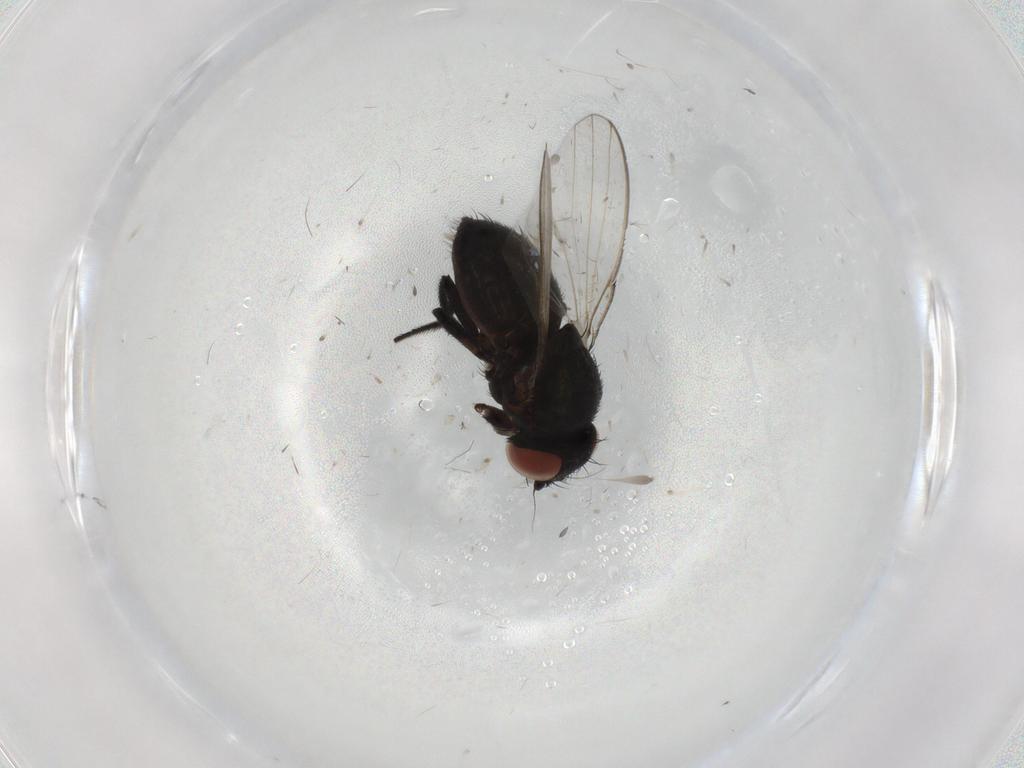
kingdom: Animalia
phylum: Arthropoda
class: Insecta
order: Diptera
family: Milichiidae
